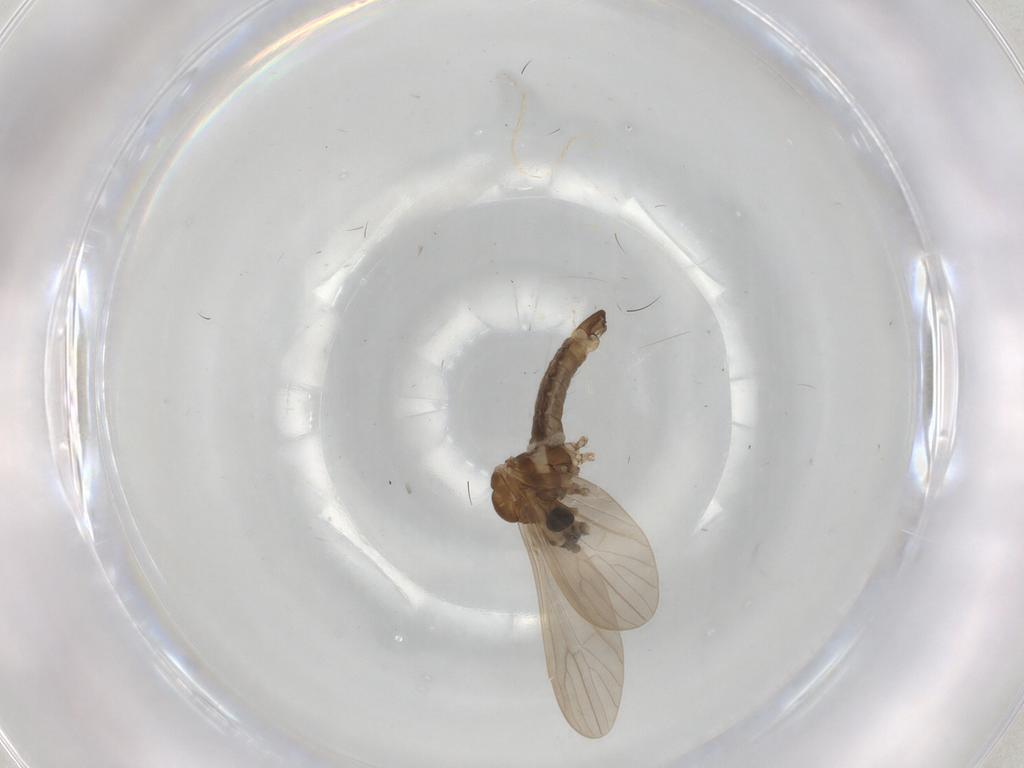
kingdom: Animalia
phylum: Arthropoda
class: Insecta
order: Diptera
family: Limoniidae
